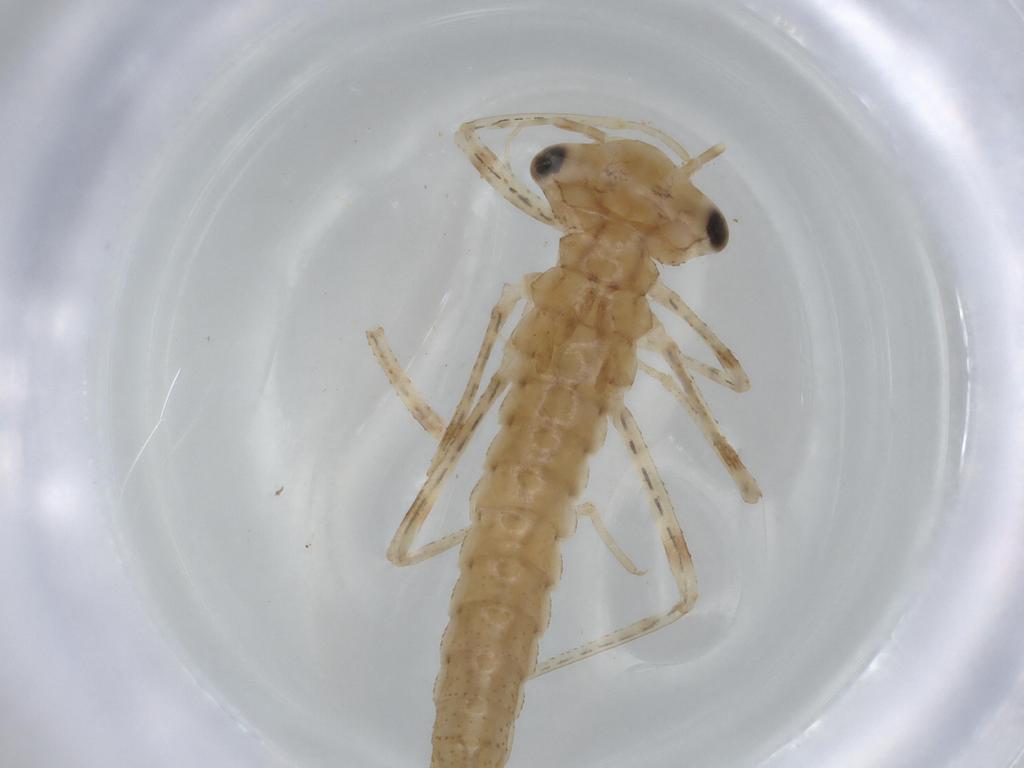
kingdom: Animalia
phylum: Arthropoda
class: Insecta
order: Odonata
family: Coenagrionidae
